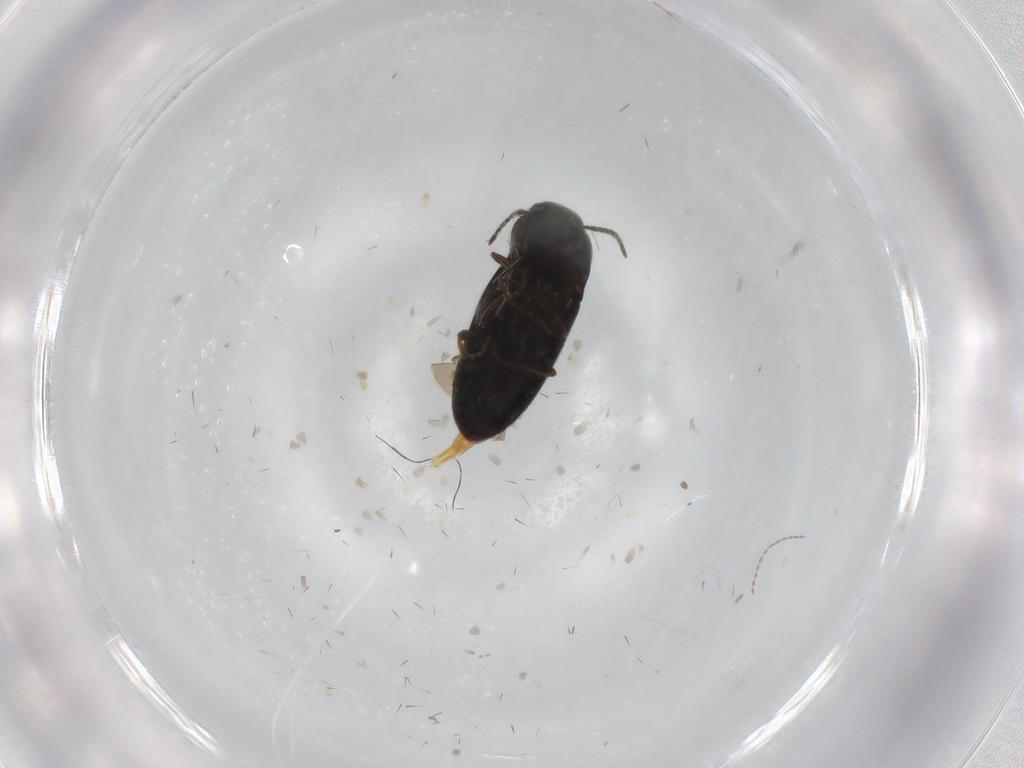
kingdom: Animalia
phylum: Arthropoda
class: Insecta
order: Coleoptera
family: Elateridae
